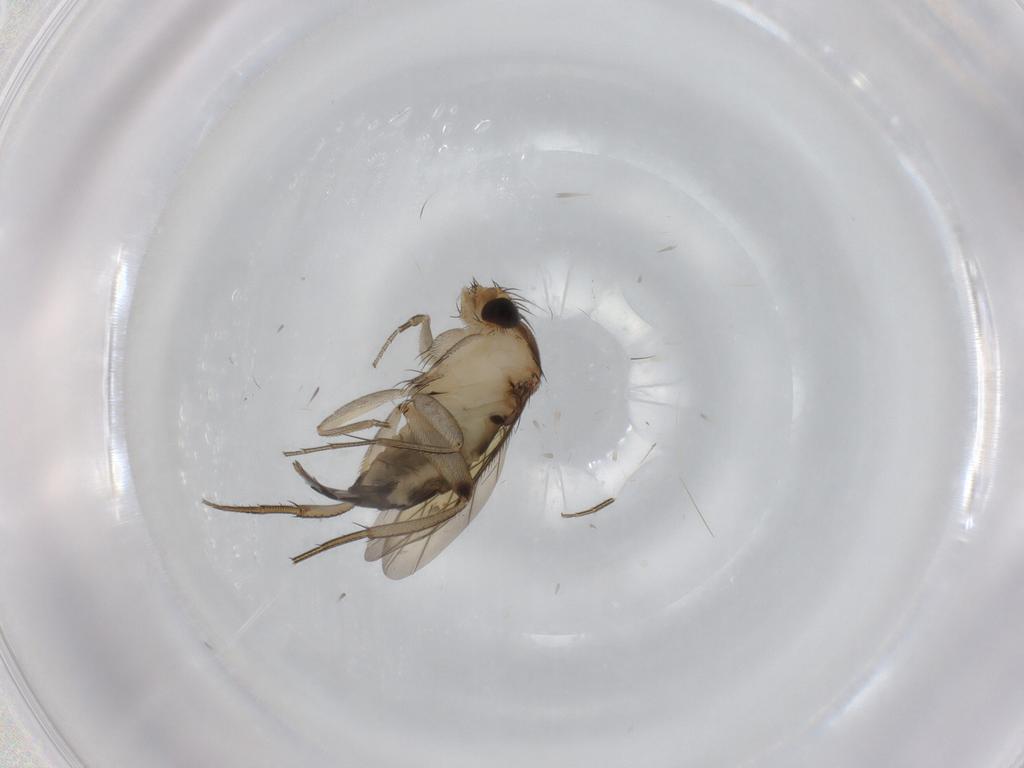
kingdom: Animalia
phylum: Arthropoda
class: Insecta
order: Diptera
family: Phoridae
